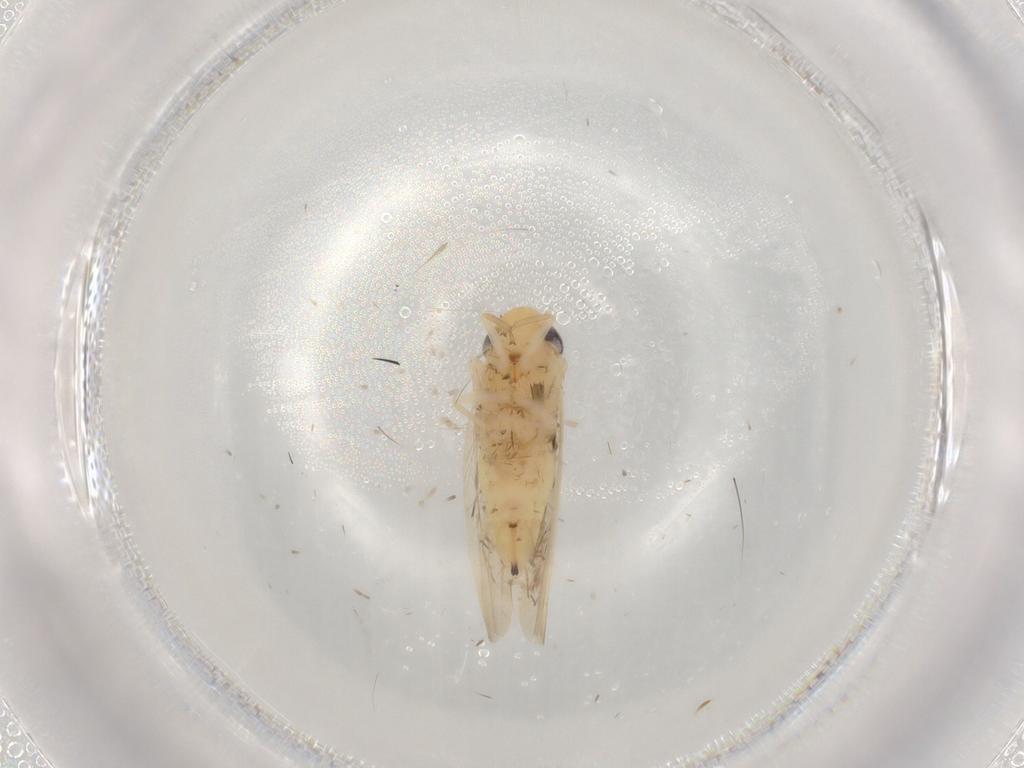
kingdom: Animalia
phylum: Arthropoda
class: Insecta
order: Hemiptera
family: Cicadellidae
